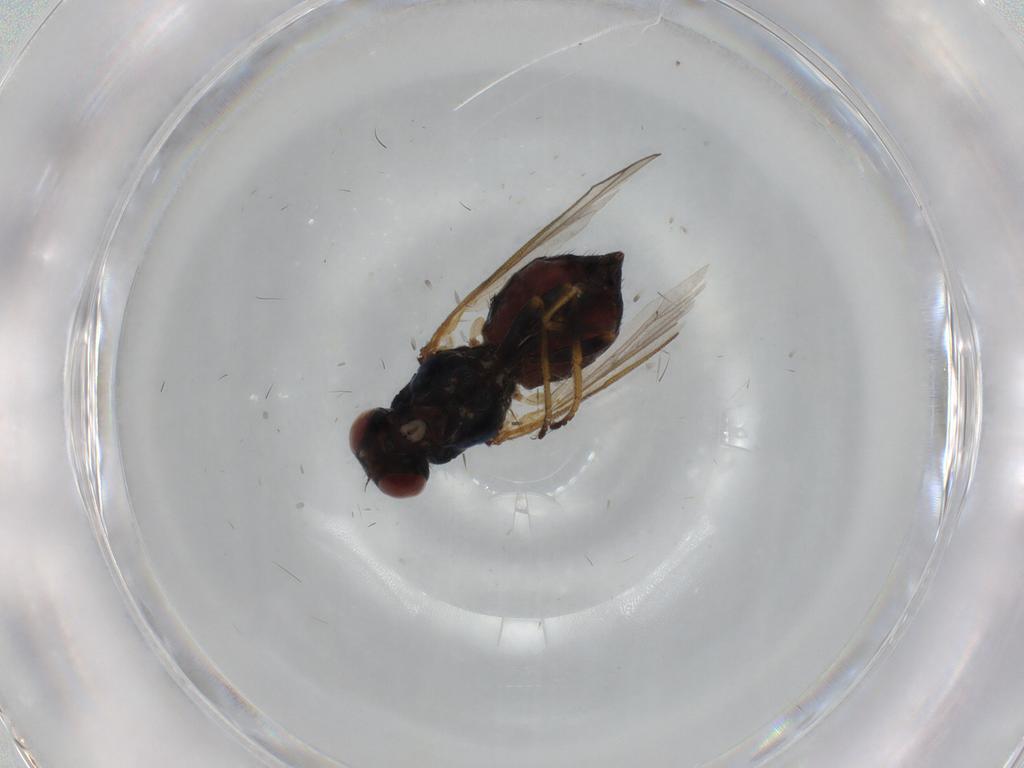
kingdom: Animalia
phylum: Arthropoda
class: Insecta
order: Diptera
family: Piophilidae
